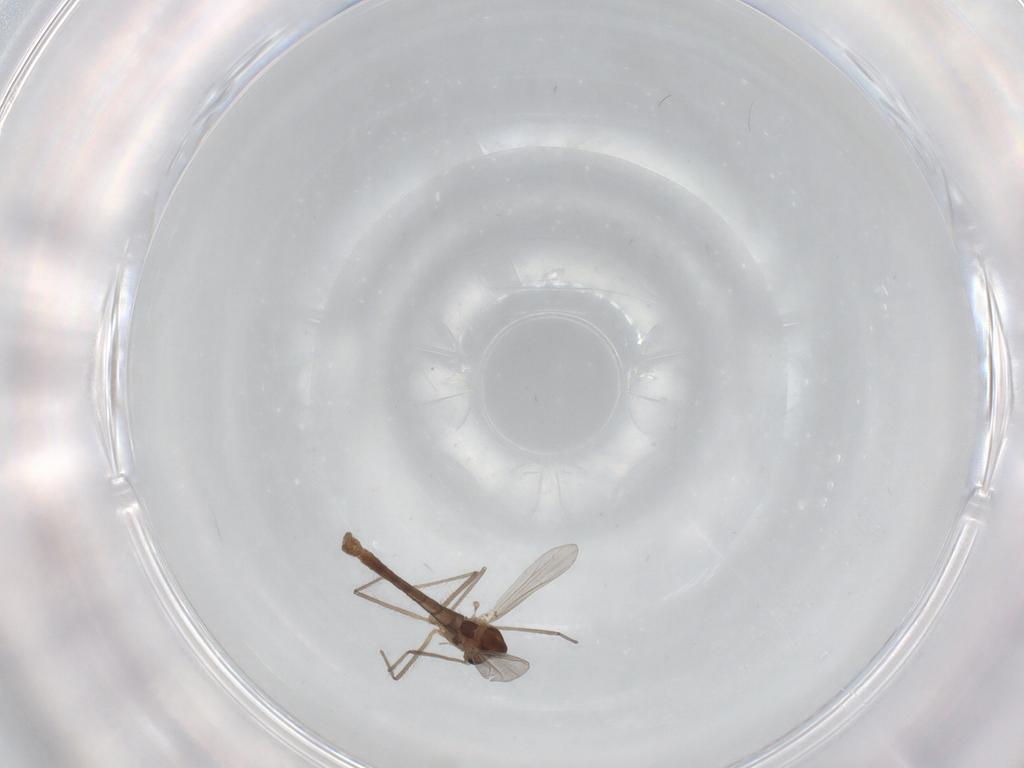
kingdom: Animalia
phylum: Arthropoda
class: Insecta
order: Diptera
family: Chironomidae
